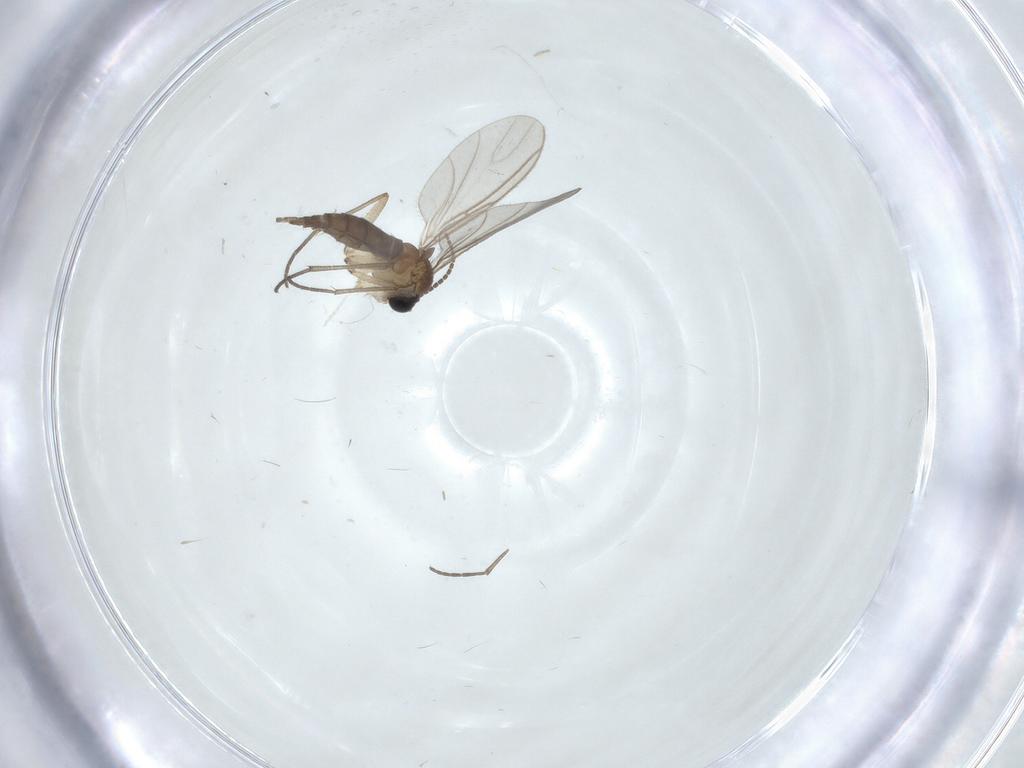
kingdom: Animalia
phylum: Arthropoda
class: Insecta
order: Diptera
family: Sciaridae
